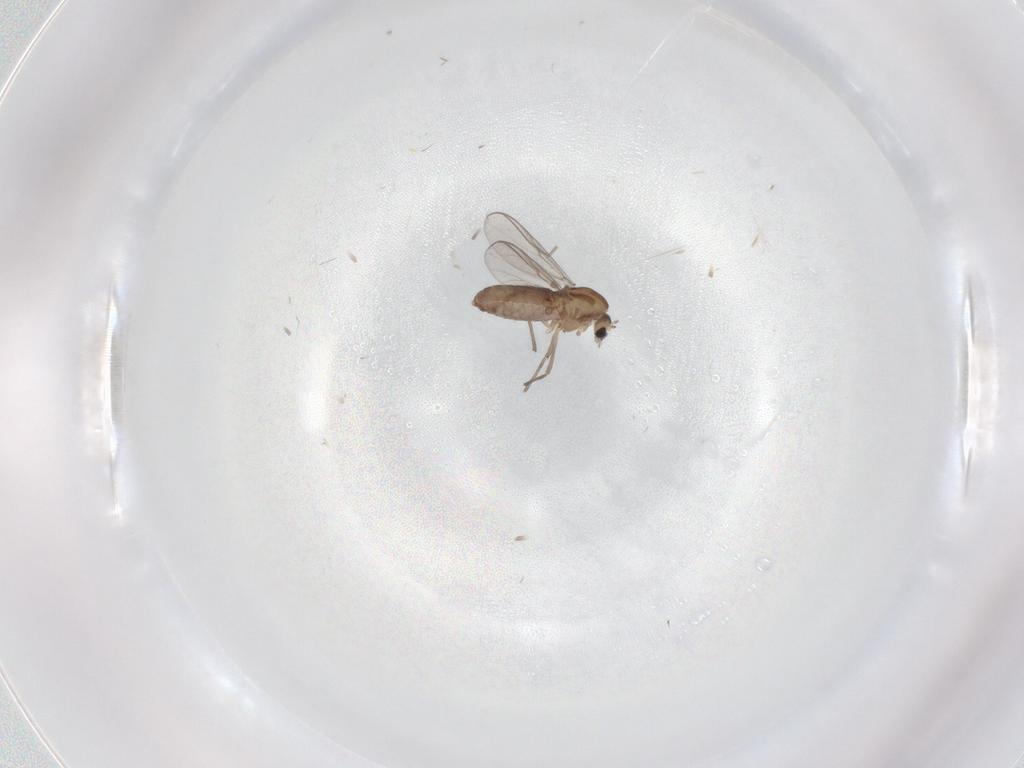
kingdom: Animalia
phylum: Arthropoda
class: Insecta
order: Diptera
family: Chironomidae
